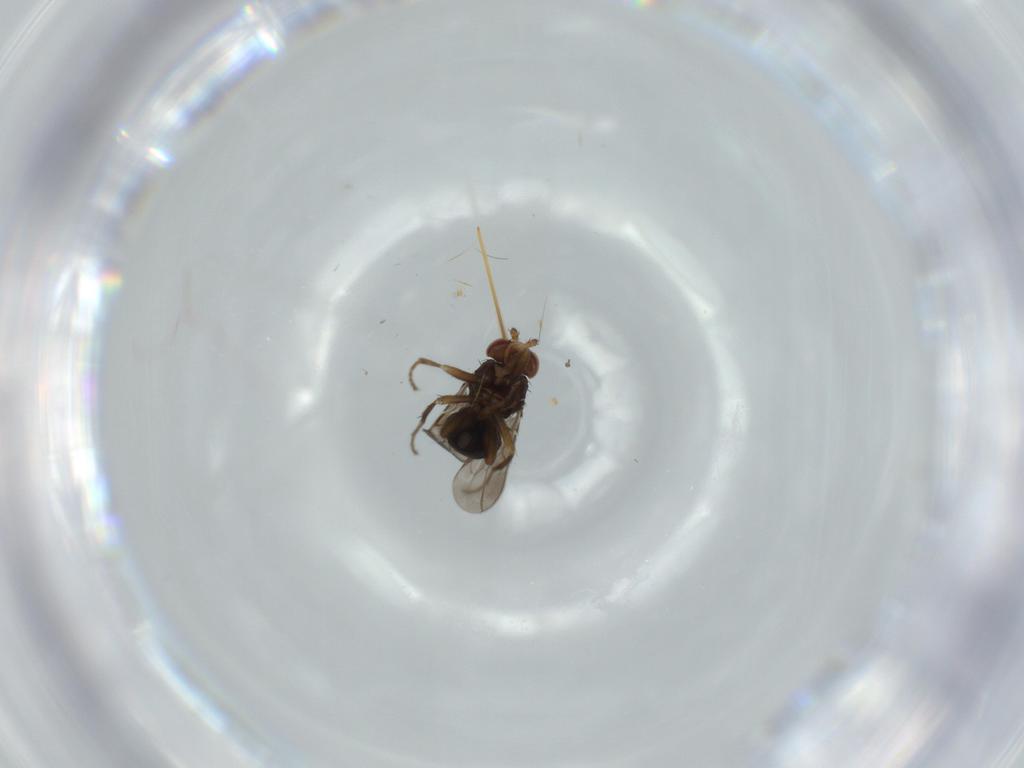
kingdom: Animalia
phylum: Arthropoda
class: Insecta
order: Diptera
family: Sphaeroceridae
